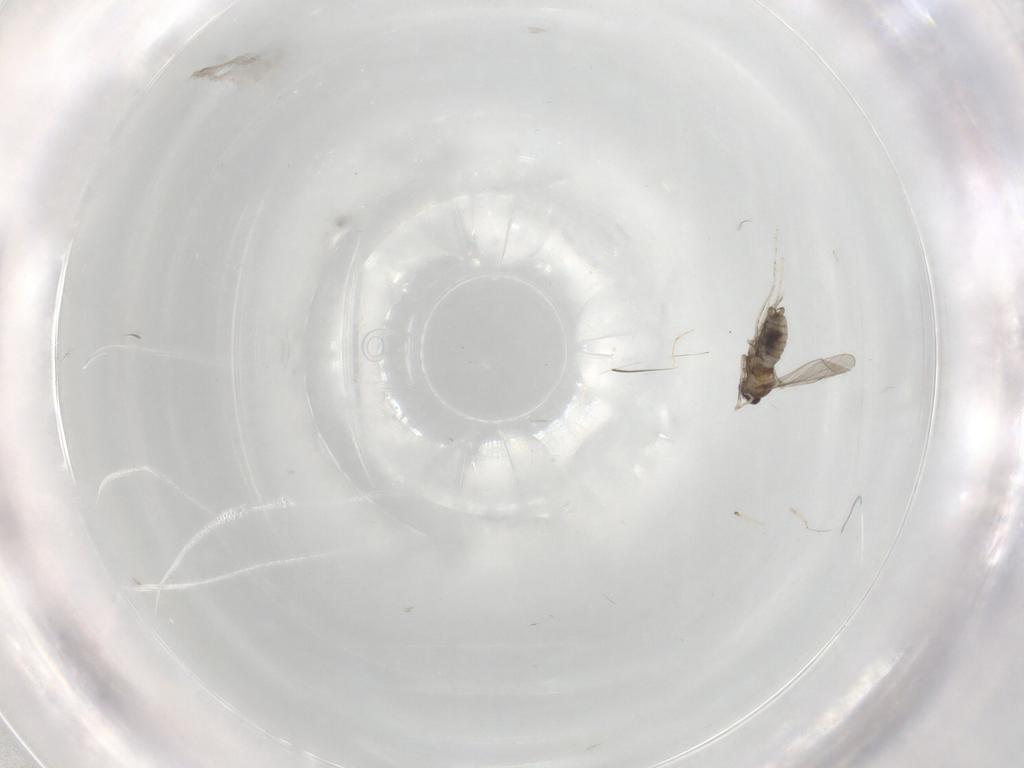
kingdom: Animalia
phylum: Arthropoda
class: Insecta
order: Diptera
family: Cecidomyiidae
